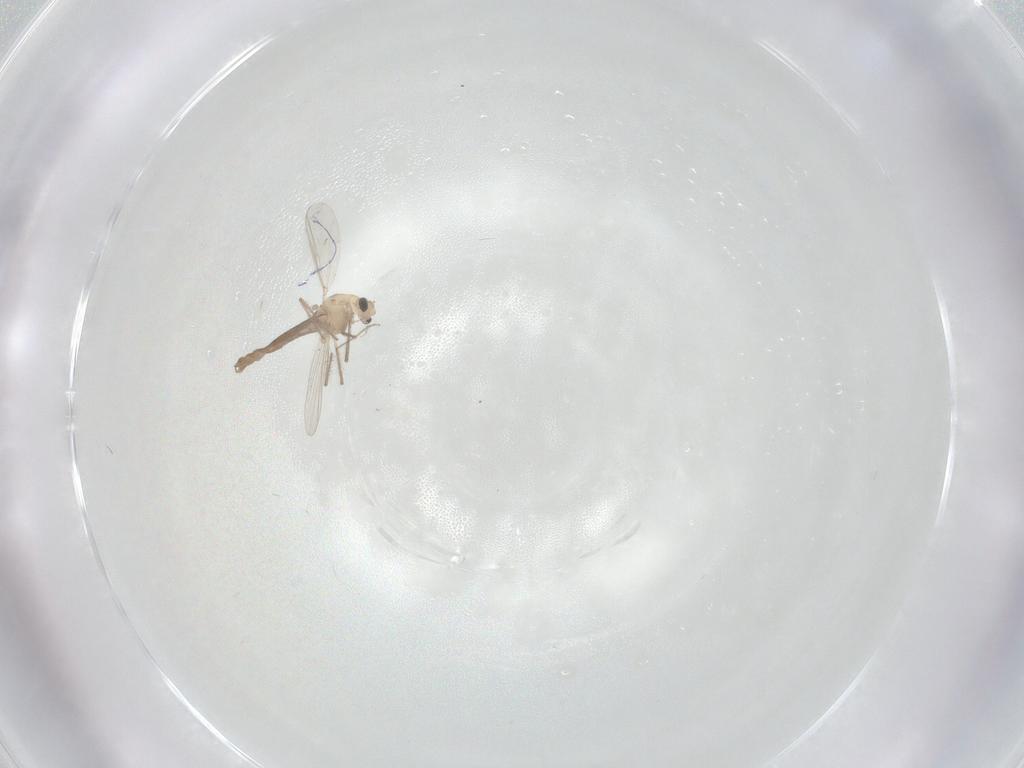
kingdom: Animalia
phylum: Arthropoda
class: Insecta
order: Diptera
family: Chironomidae
